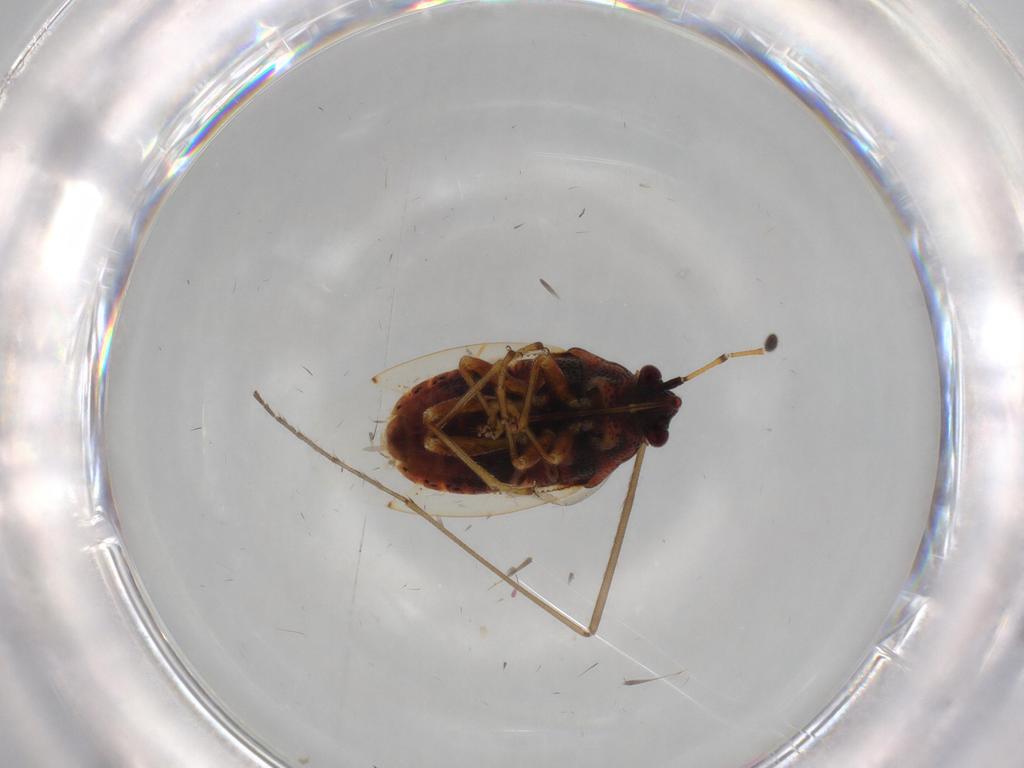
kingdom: Animalia
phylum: Arthropoda
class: Insecta
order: Hemiptera
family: Lygaeidae
